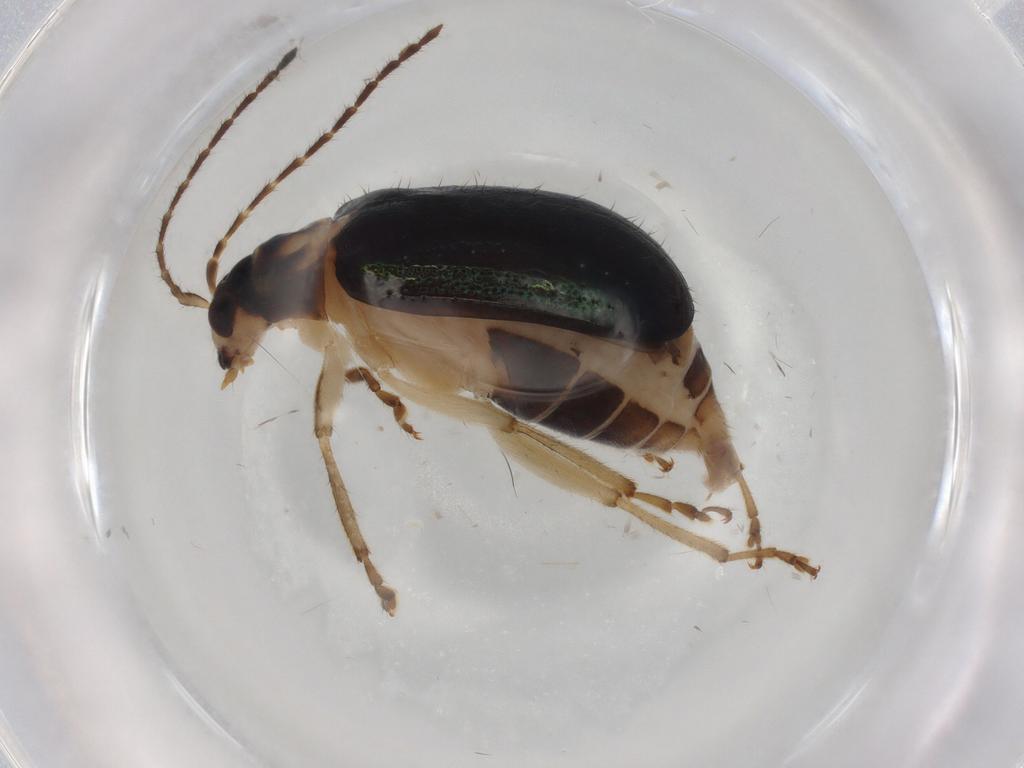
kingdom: Animalia
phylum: Arthropoda
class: Insecta
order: Coleoptera
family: Chrysomelidae
